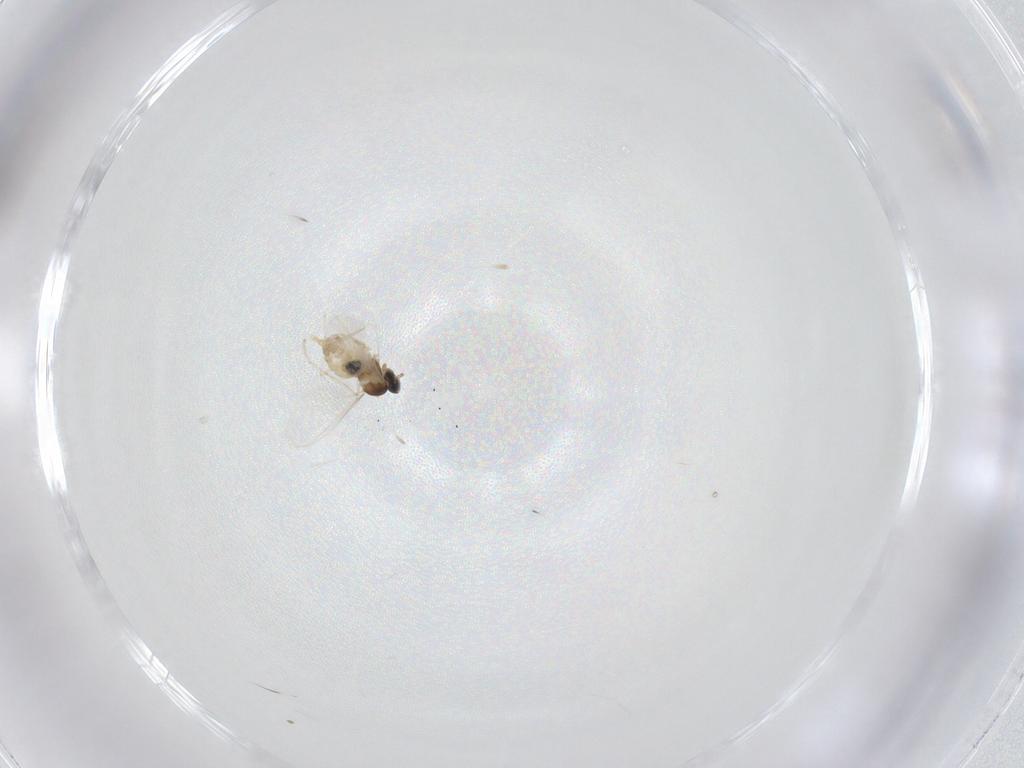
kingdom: Animalia
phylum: Arthropoda
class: Insecta
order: Diptera
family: Cecidomyiidae
